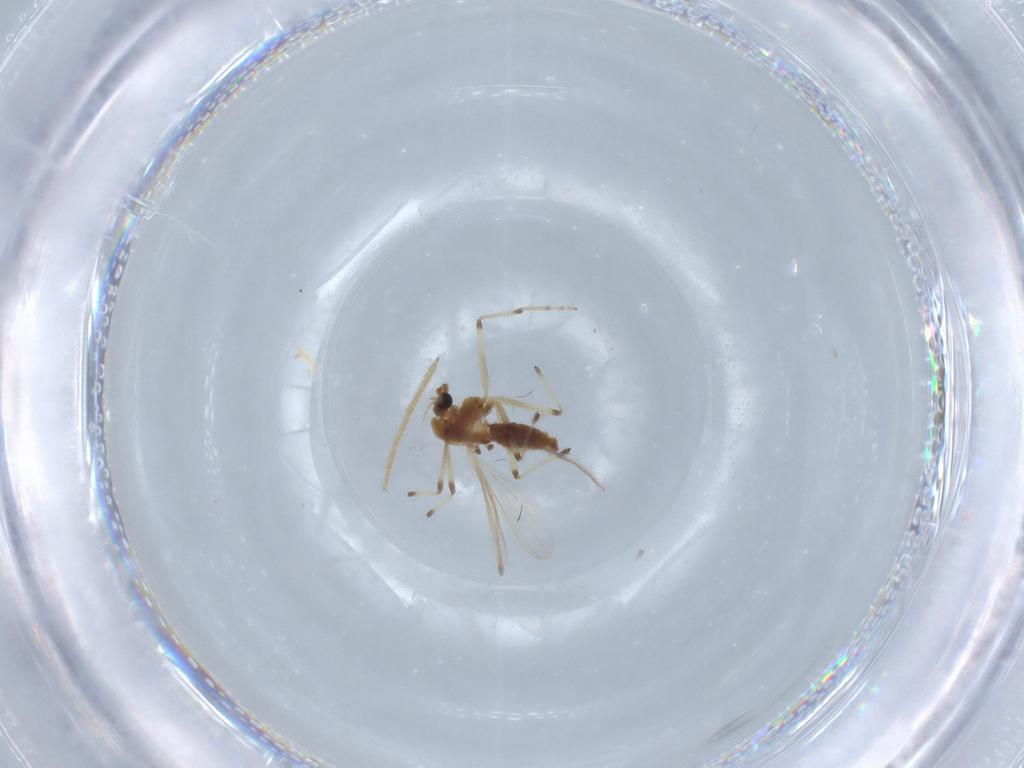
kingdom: Animalia
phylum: Arthropoda
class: Insecta
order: Diptera
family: Chironomidae
